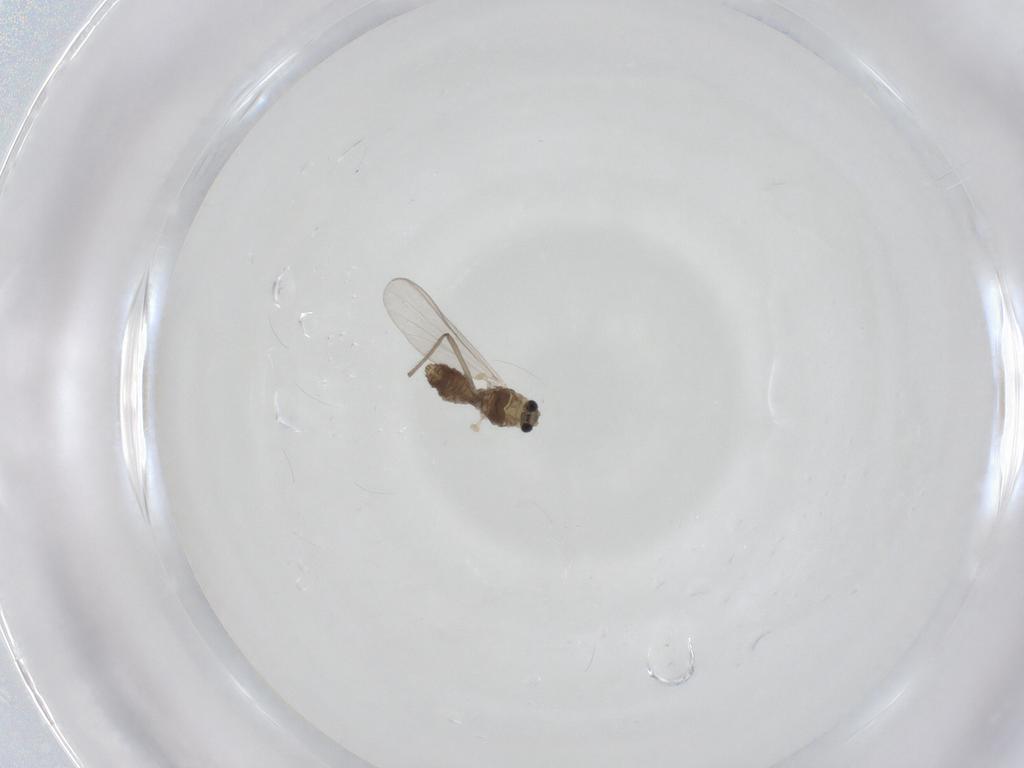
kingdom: Animalia
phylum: Arthropoda
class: Insecta
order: Diptera
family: Chironomidae
